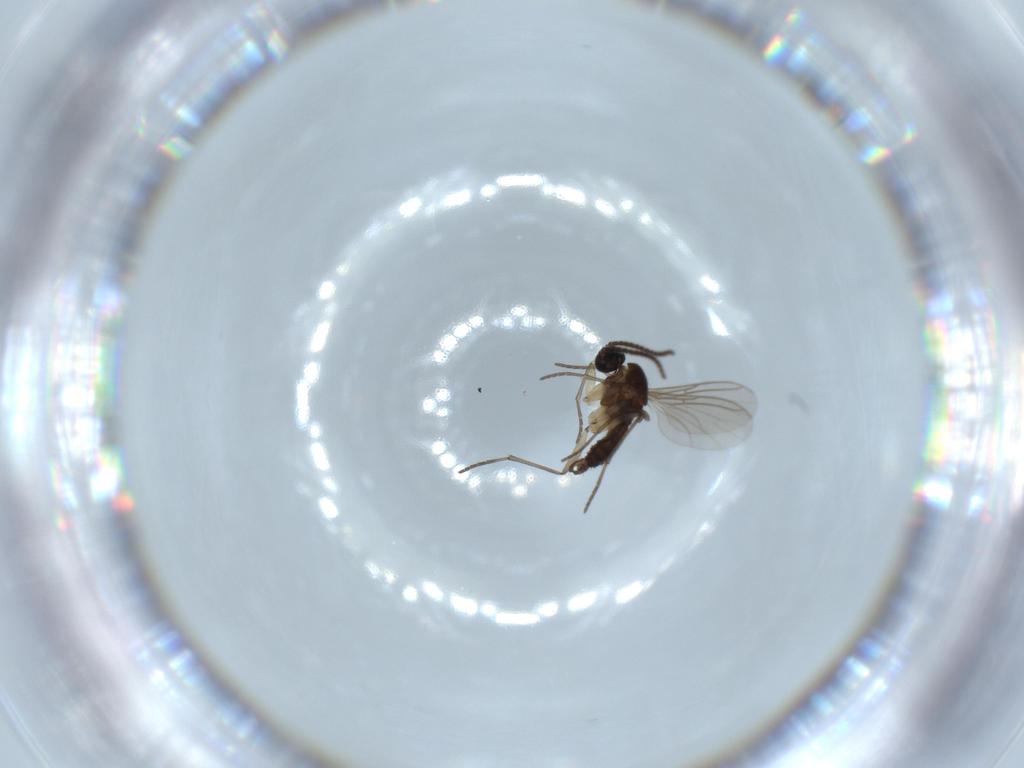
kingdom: Animalia
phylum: Arthropoda
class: Insecta
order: Diptera
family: Sciaridae
